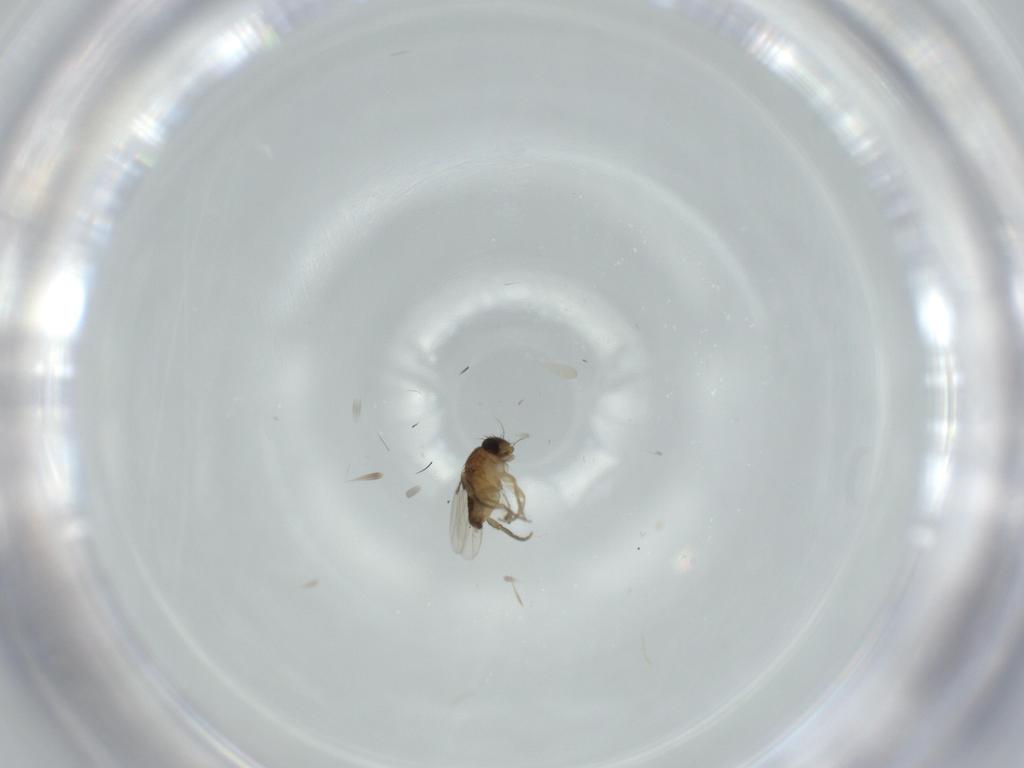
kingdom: Animalia
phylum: Arthropoda
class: Insecta
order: Diptera
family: Phoridae
